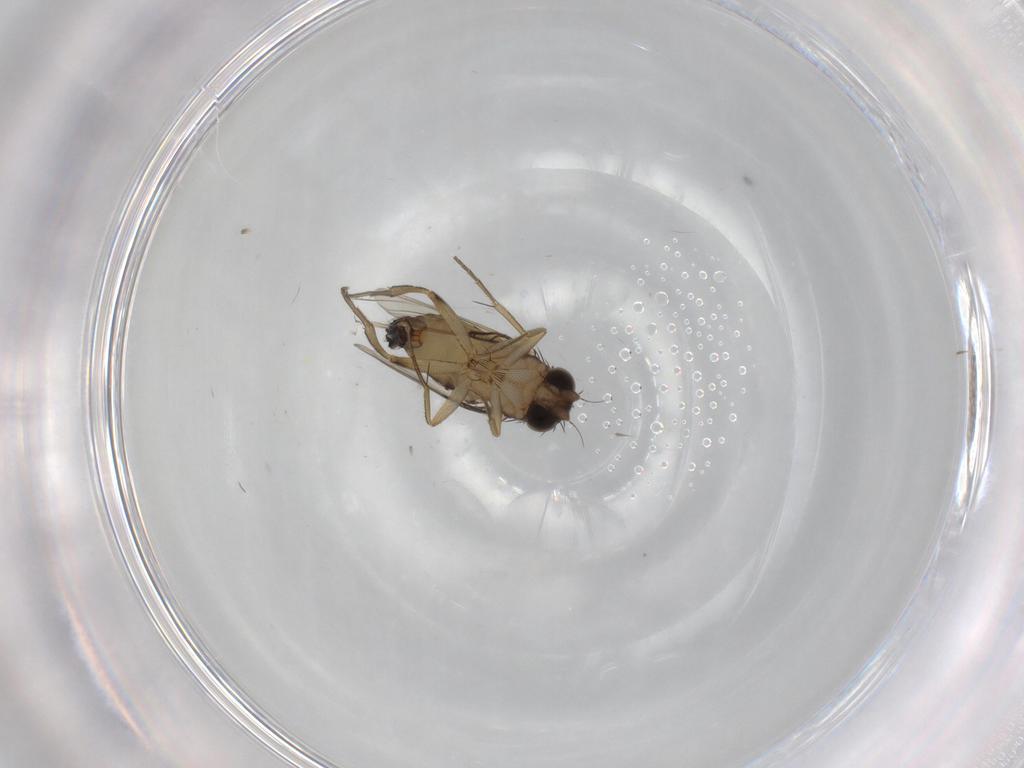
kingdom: Animalia
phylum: Arthropoda
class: Insecta
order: Diptera
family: Phoridae
